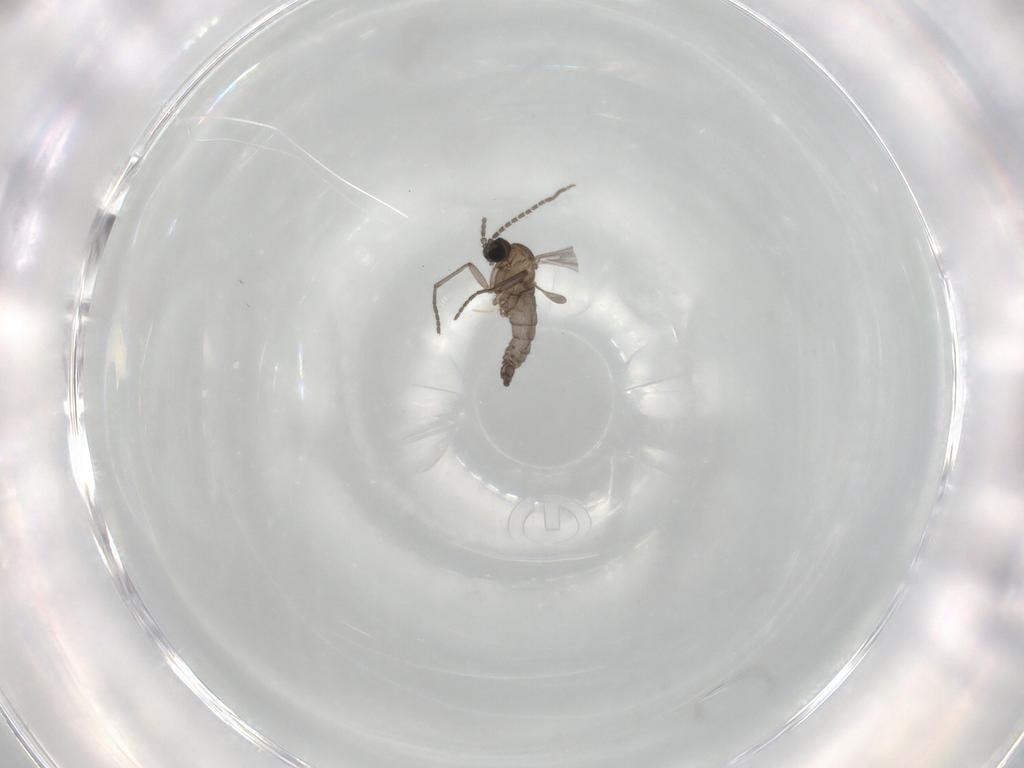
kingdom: Animalia
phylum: Arthropoda
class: Insecta
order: Diptera
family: Sciaridae
